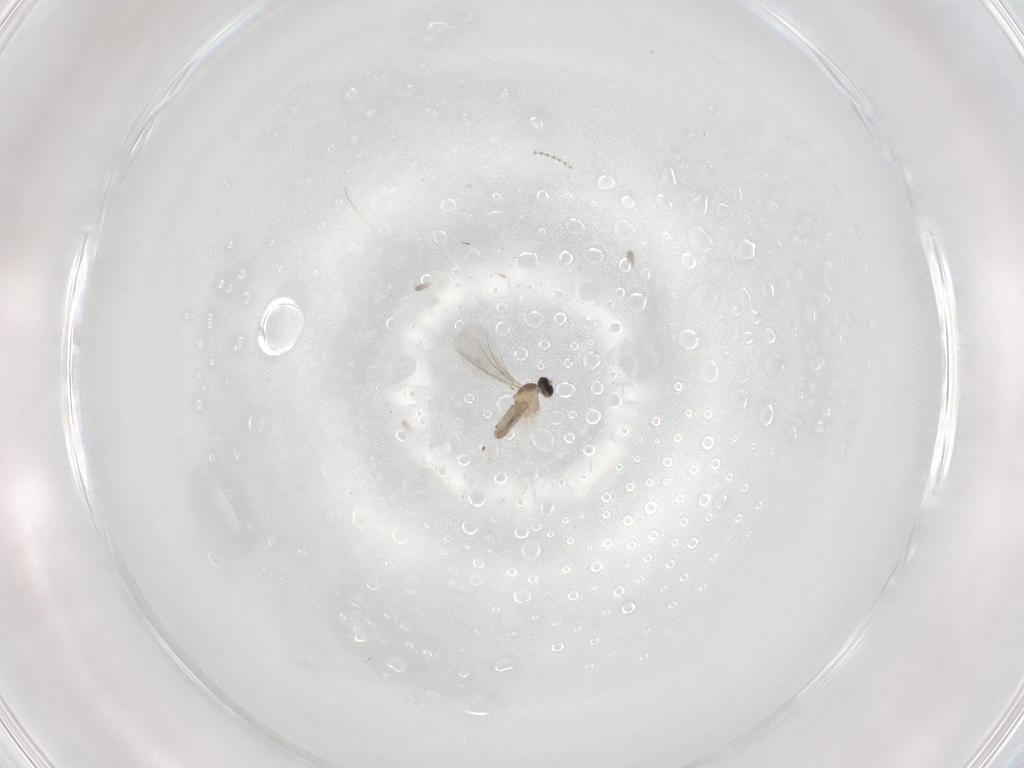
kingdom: Animalia
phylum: Arthropoda
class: Insecta
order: Diptera
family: Cecidomyiidae
